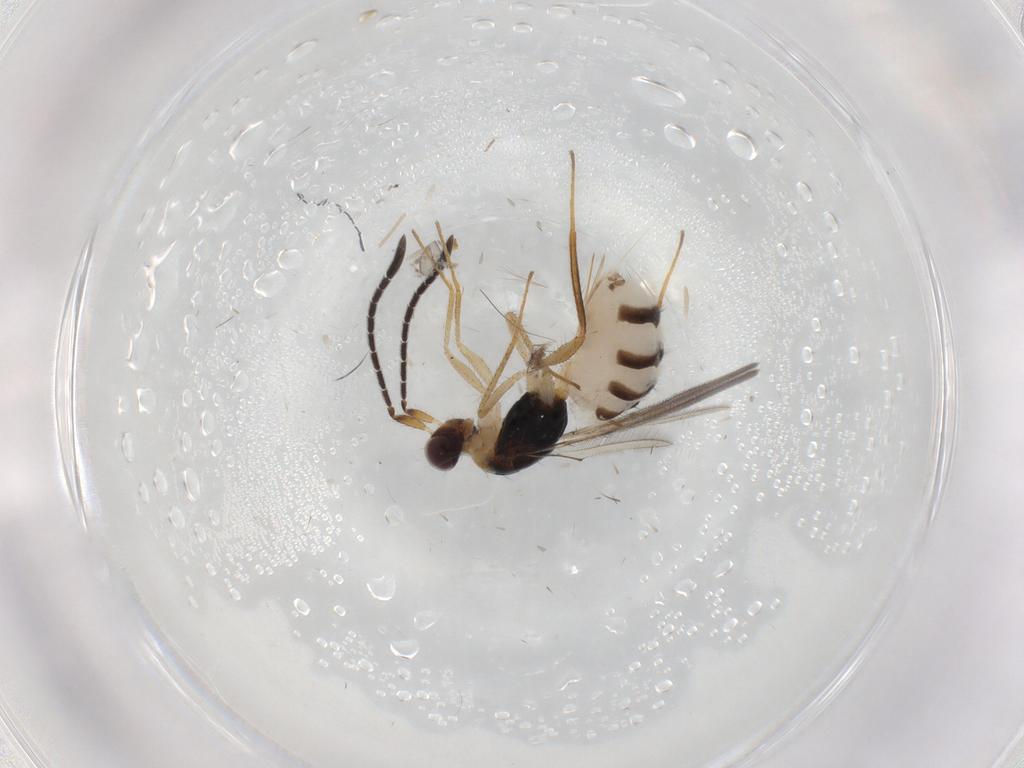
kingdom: Animalia
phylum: Arthropoda
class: Insecta
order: Hymenoptera
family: Mymaridae
